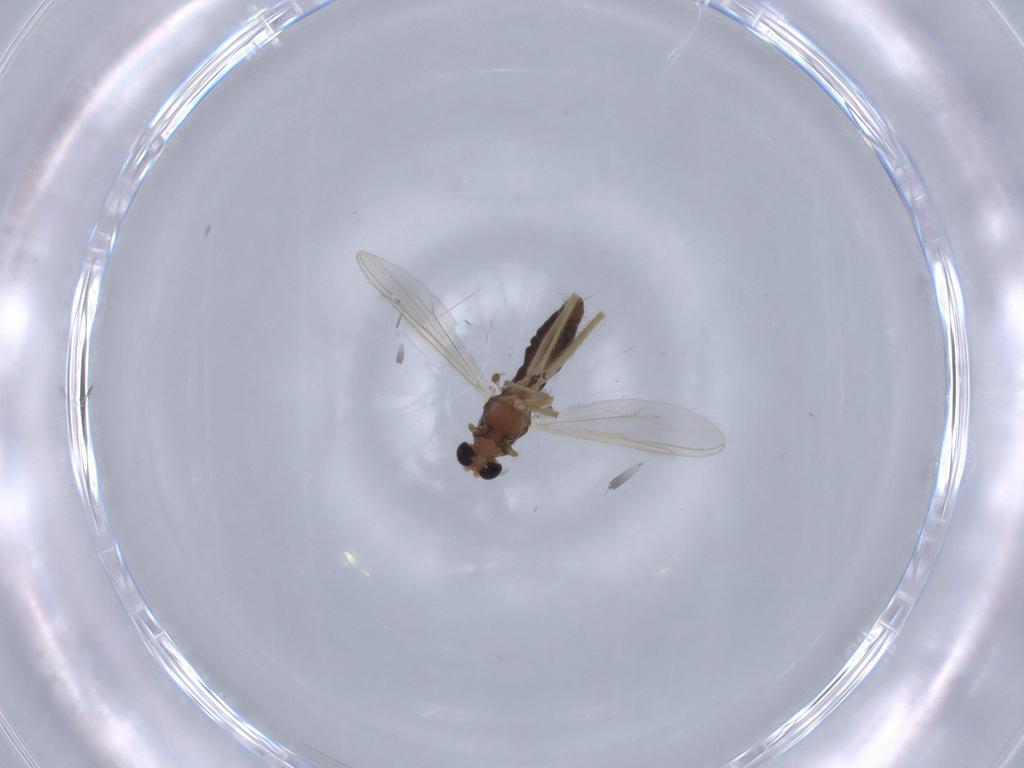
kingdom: Animalia
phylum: Arthropoda
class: Insecta
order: Diptera
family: Chironomidae
